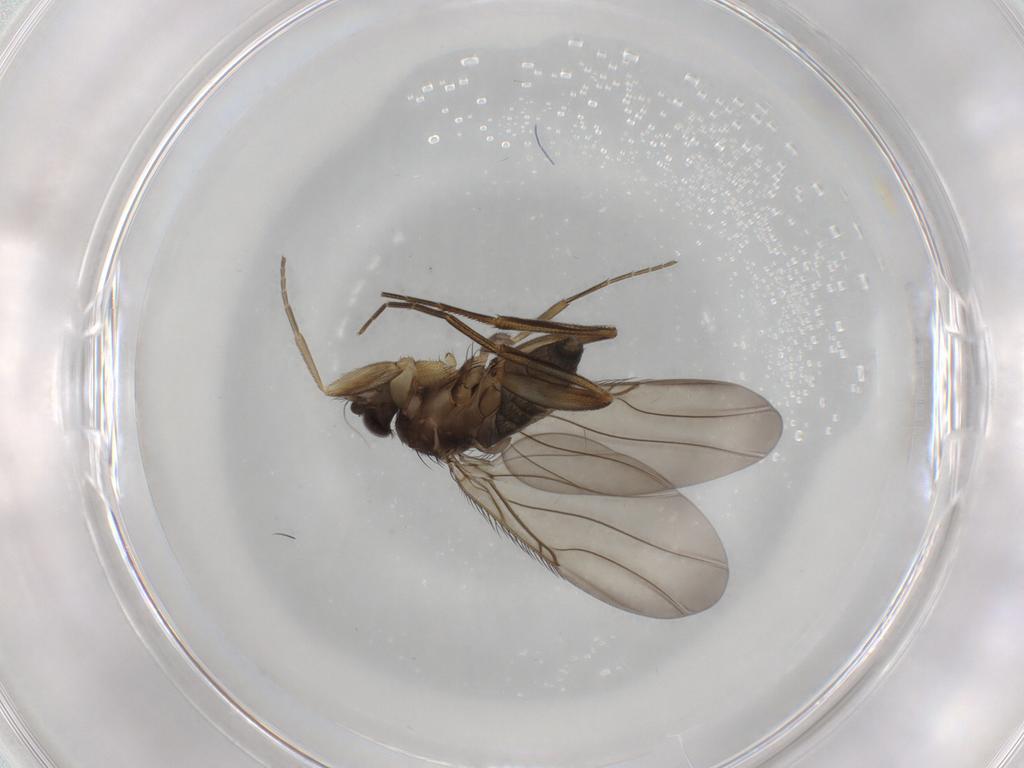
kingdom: Animalia
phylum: Arthropoda
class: Insecta
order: Diptera
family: Phoridae
